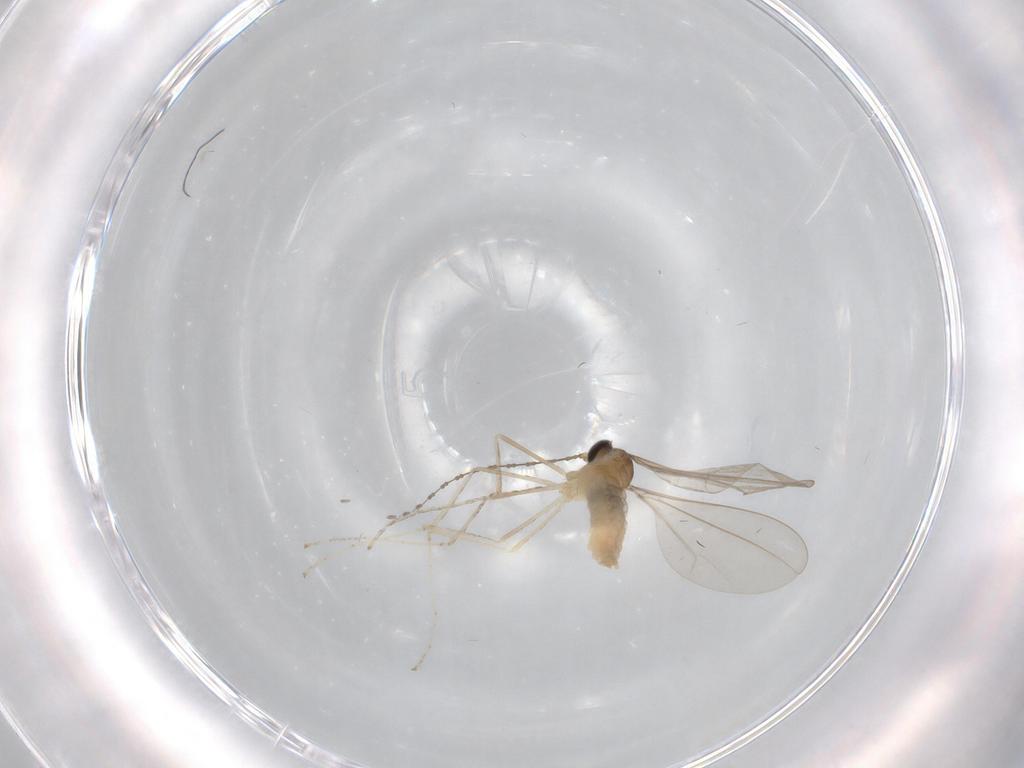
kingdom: Animalia
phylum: Arthropoda
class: Insecta
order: Diptera
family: Cecidomyiidae
